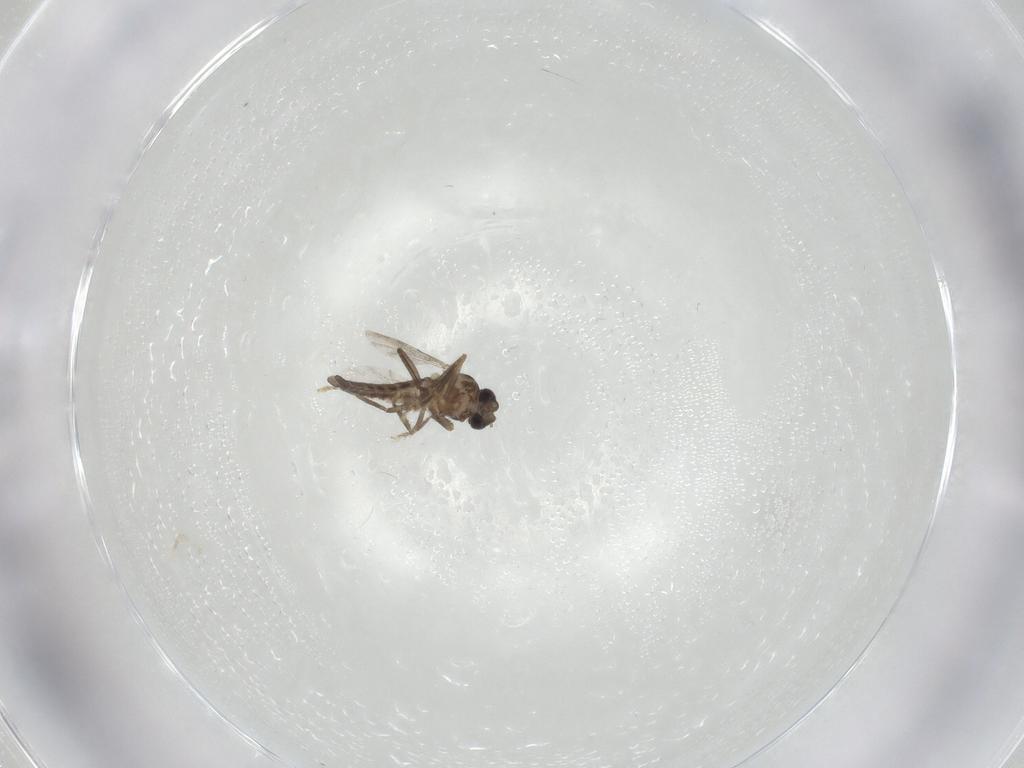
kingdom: Animalia
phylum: Arthropoda
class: Insecta
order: Diptera
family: Ceratopogonidae
